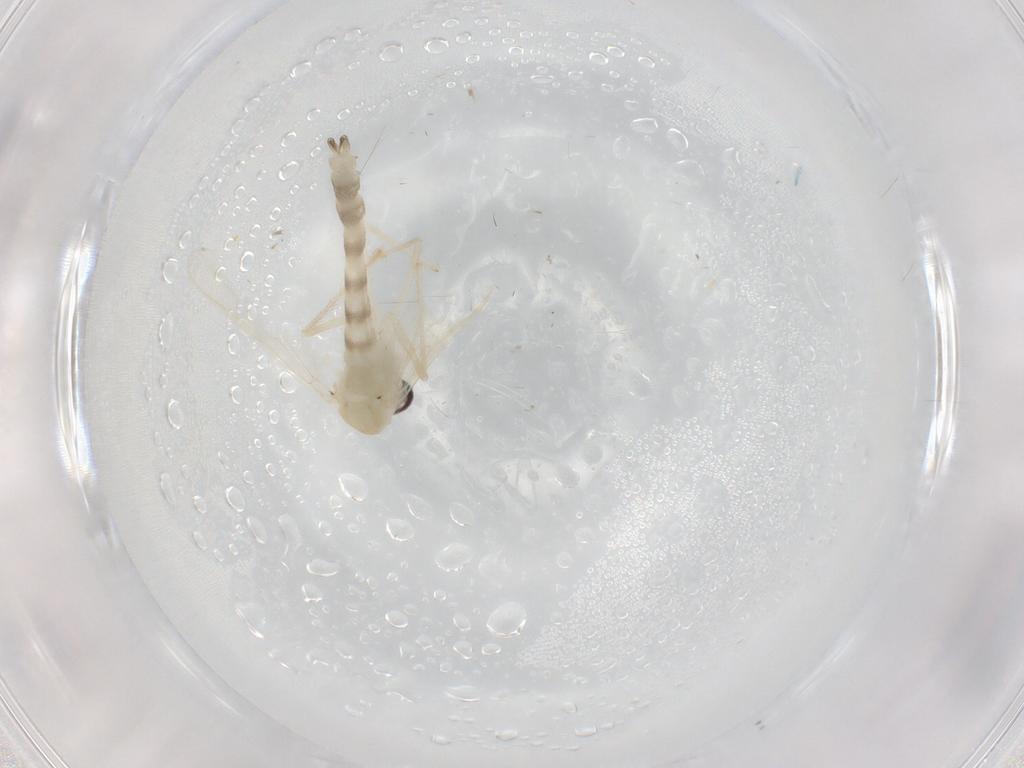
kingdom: Animalia
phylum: Arthropoda
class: Insecta
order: Diptera
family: Chironomidae
